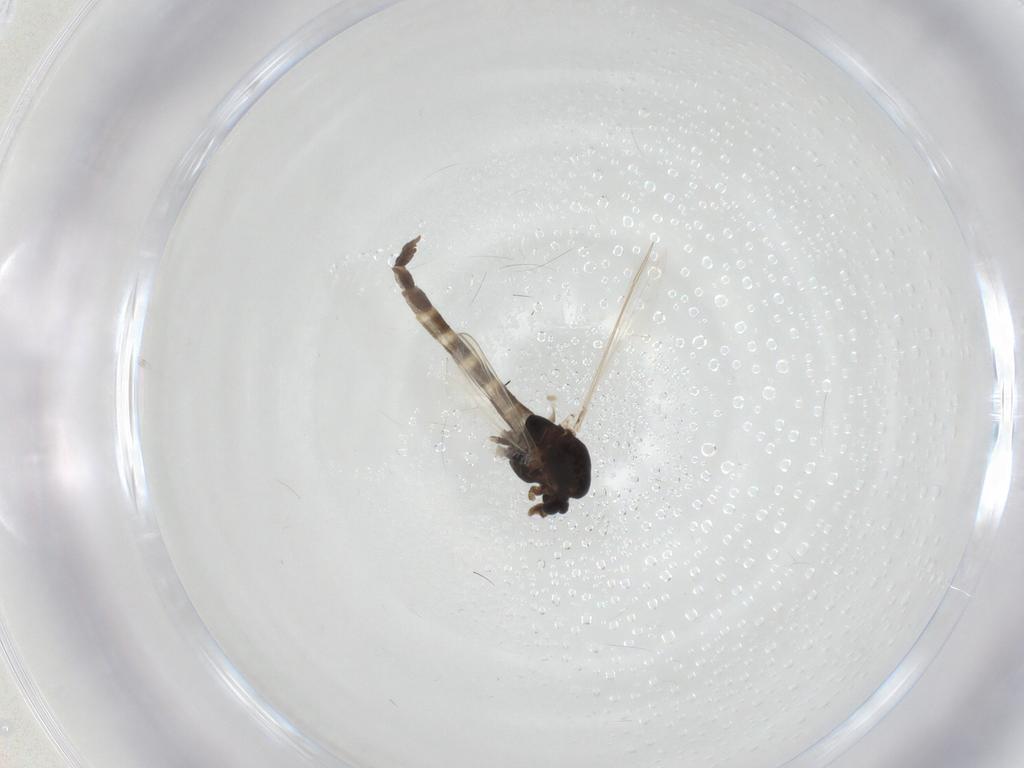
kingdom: Animalia
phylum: Arthropoda
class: Insecta
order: Diptera
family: Chironomidae
